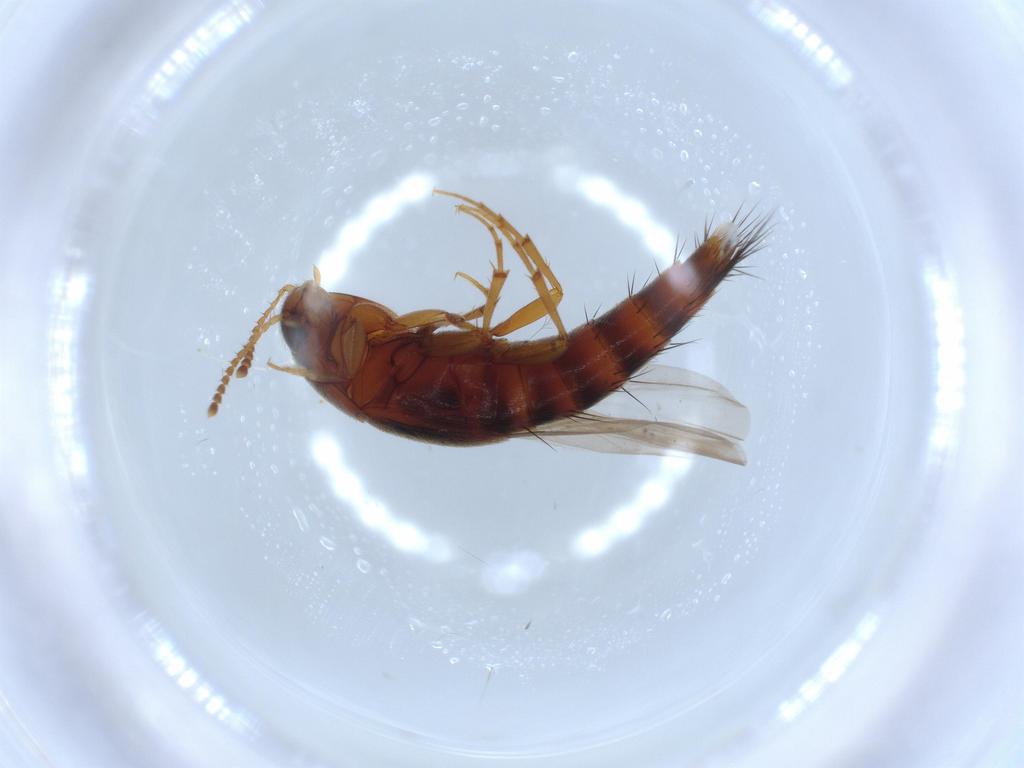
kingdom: Animalia
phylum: Arthropoda
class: Insecta
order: Coleoptera
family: Staphylinidae
